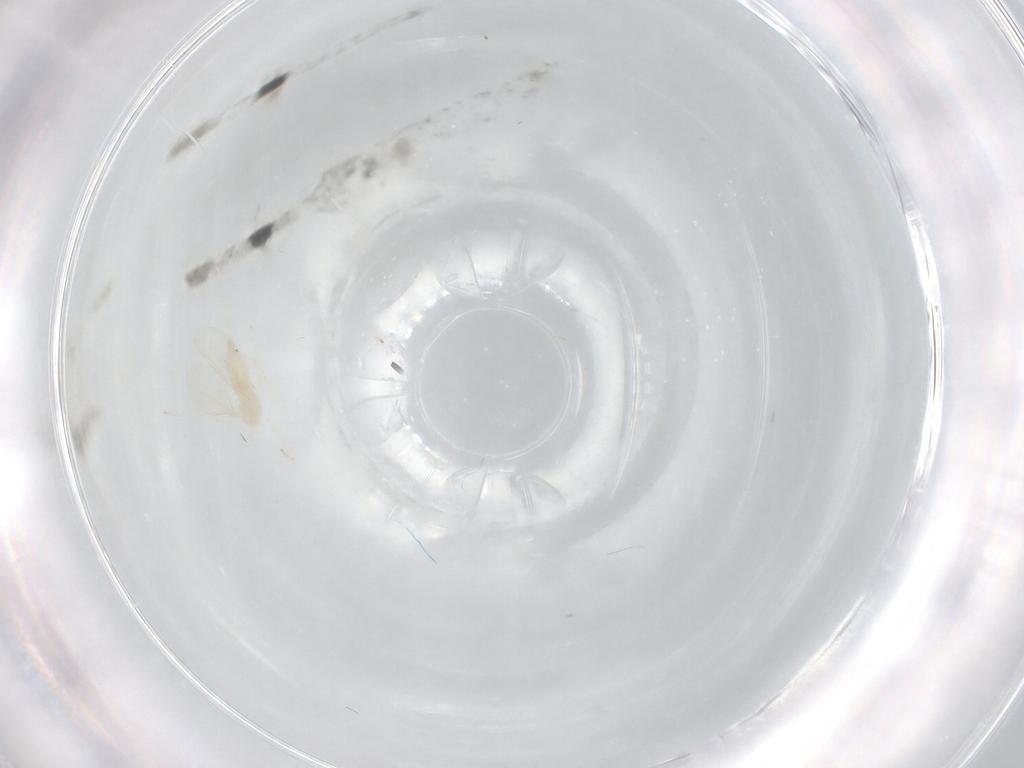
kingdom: Animalia
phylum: Arthropoda
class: Insecta
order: Diptera
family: Cecidomyiidae
